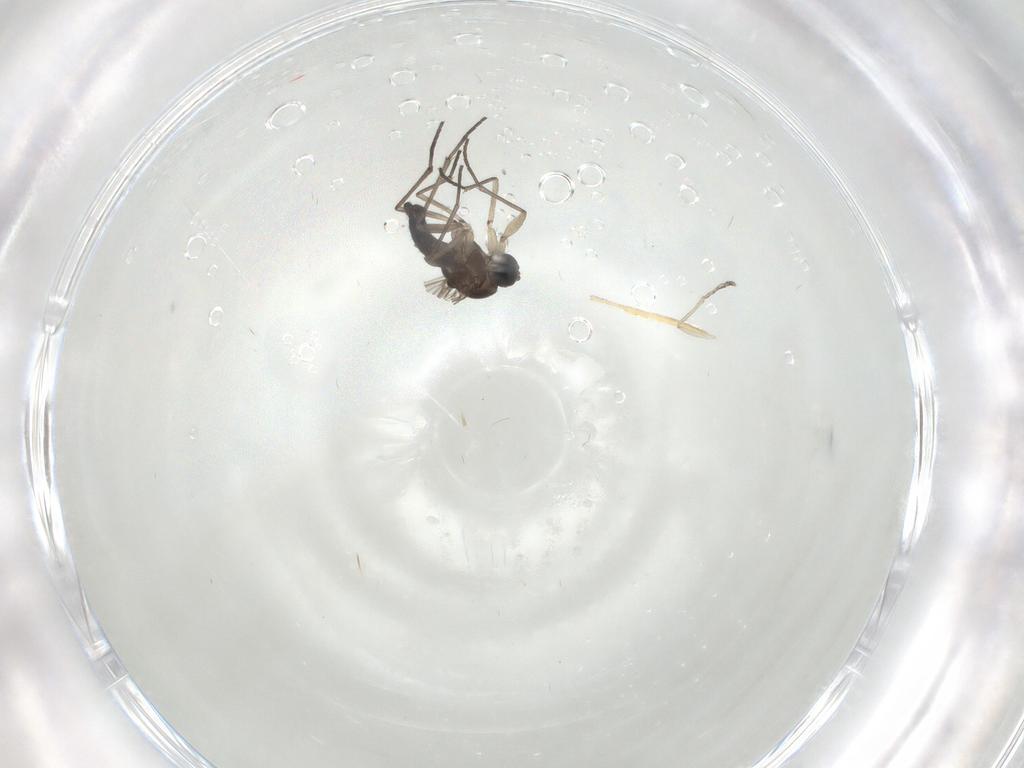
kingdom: Animalia
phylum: Arthropoda
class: Insecta
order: Diptera
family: Sciaridae
